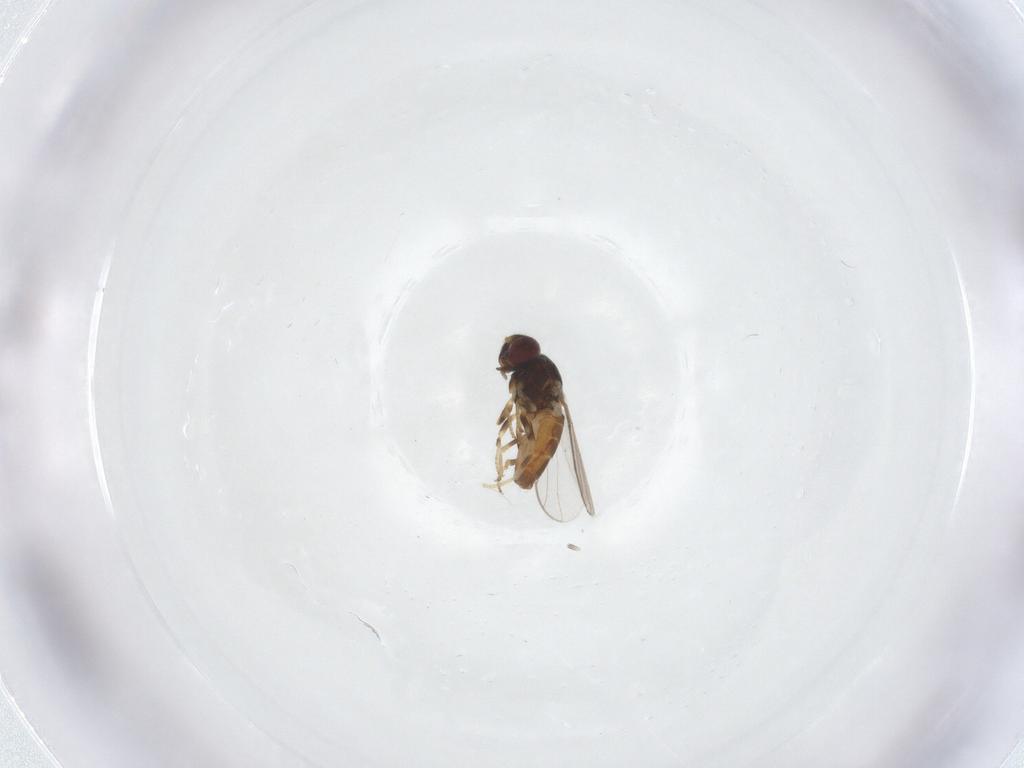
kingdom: Animalia
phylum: Arthropoda
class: Insecta
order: Diptera
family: Chloropidae
